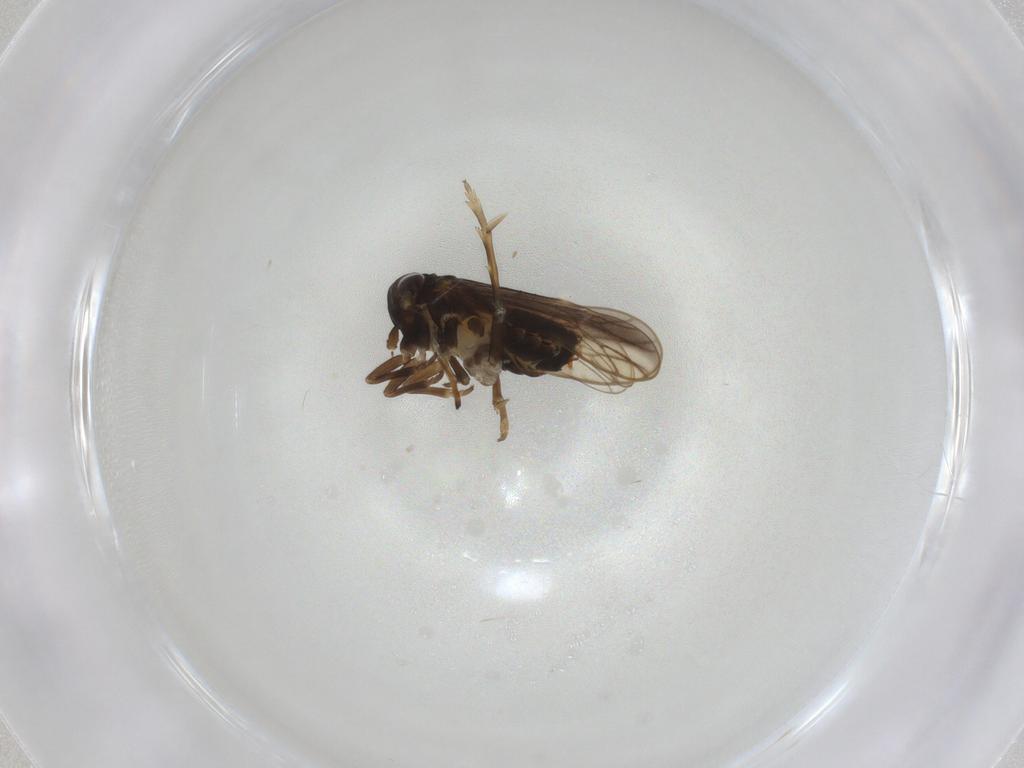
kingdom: Animalia
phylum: Arthropoda
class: Insecta
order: Hemiptera
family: Delphacidae
